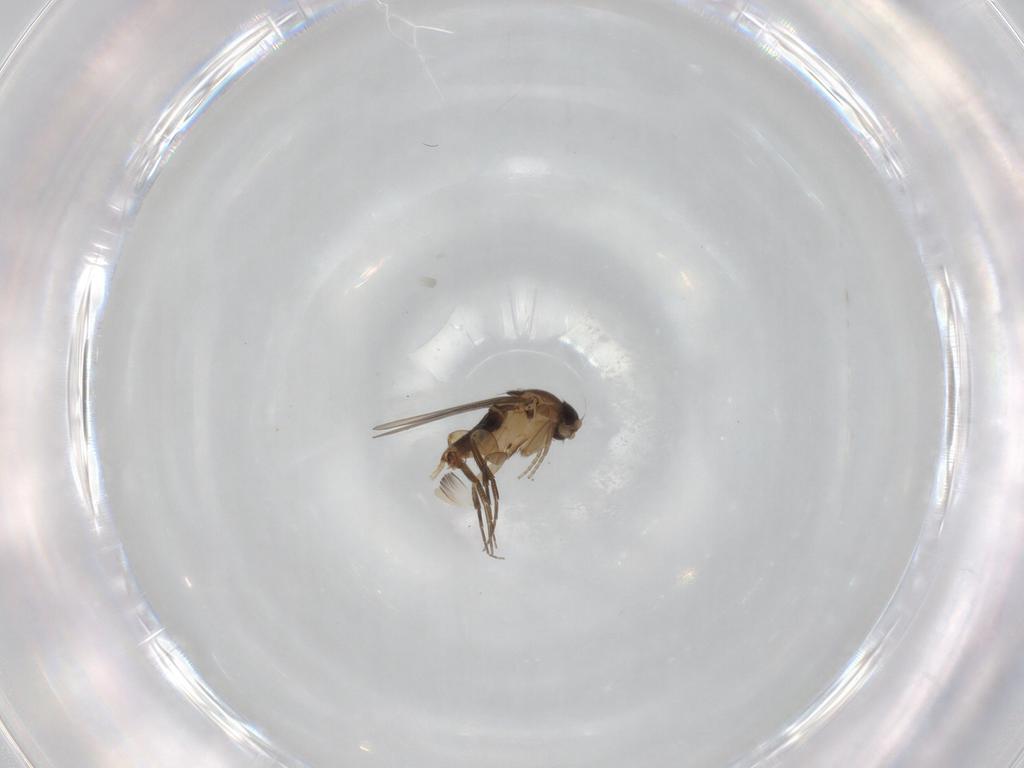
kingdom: Animalia
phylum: Arthropoda
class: Insecta
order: Diptera
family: Phoridae
